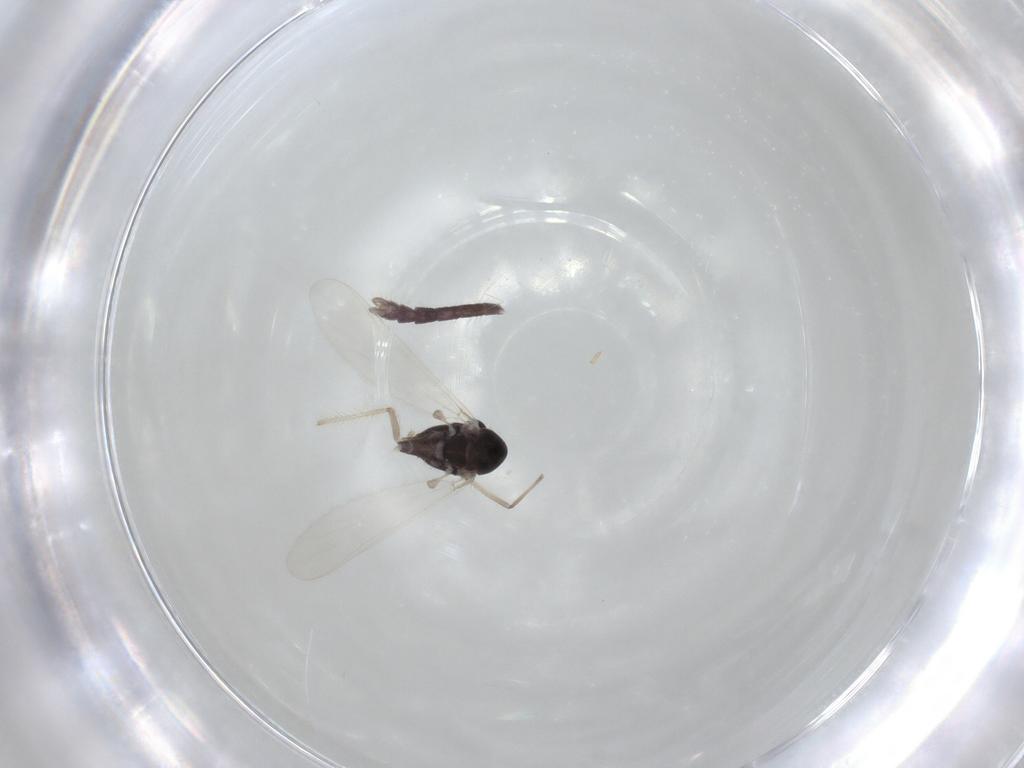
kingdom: Animalia
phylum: Arthropoda
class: Insecta
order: Diptera
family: Chironomidae
